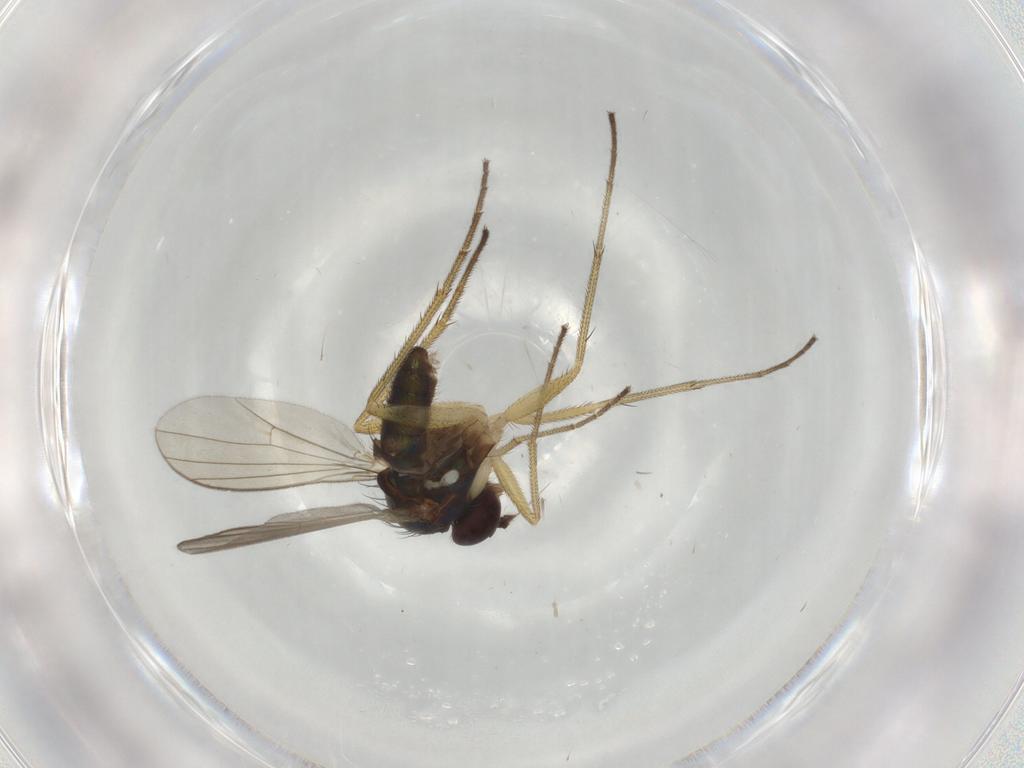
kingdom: Animalia
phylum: Arthropoda
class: Insecta
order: Diptera
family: Dolichopodidae
